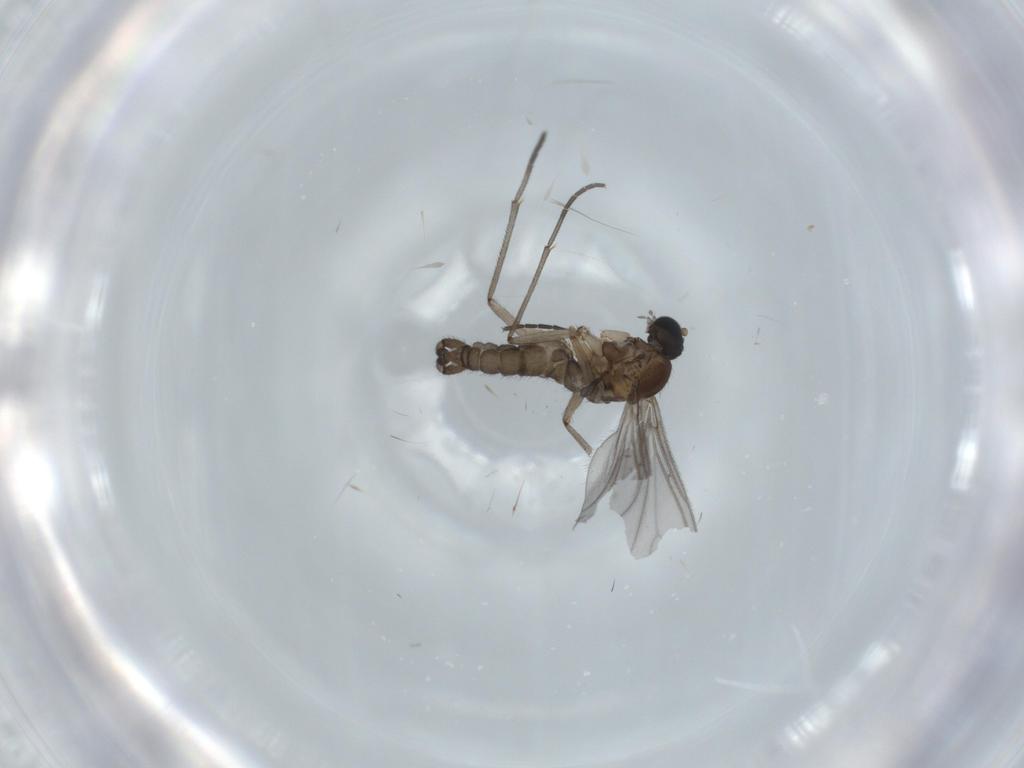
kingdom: Animalia
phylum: Arthropoda
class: Insecta
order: Diptera
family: Sciaridae
